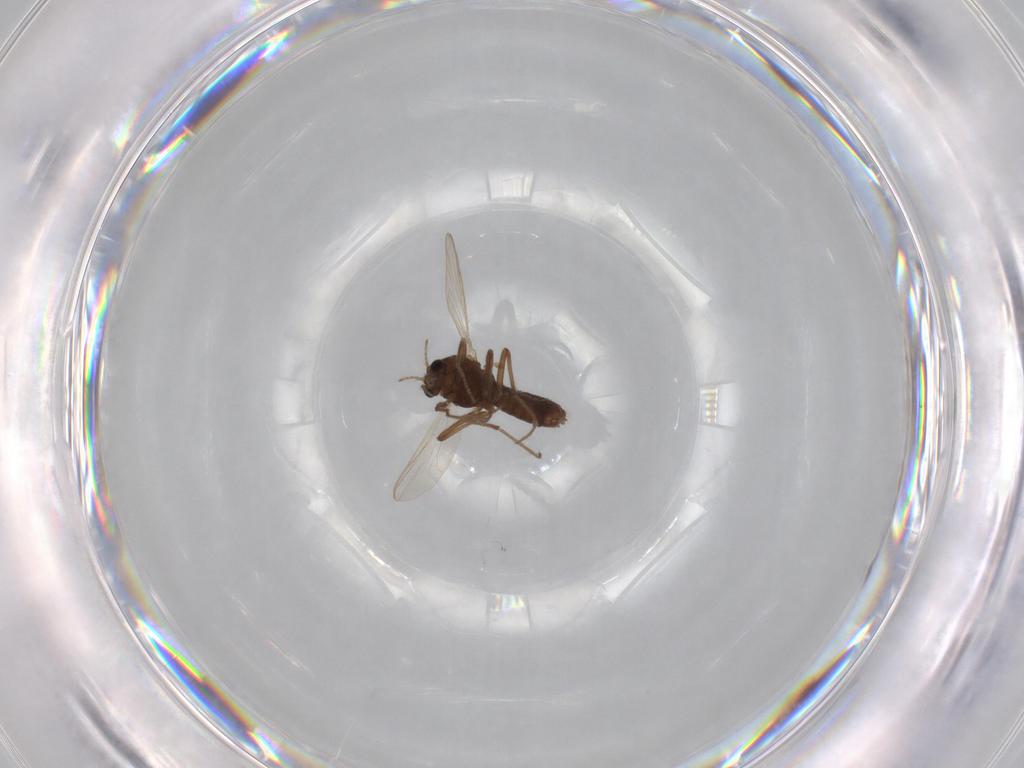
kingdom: Animalia
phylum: Arthropoda
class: Insecta
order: Diptera
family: Chironomidae
